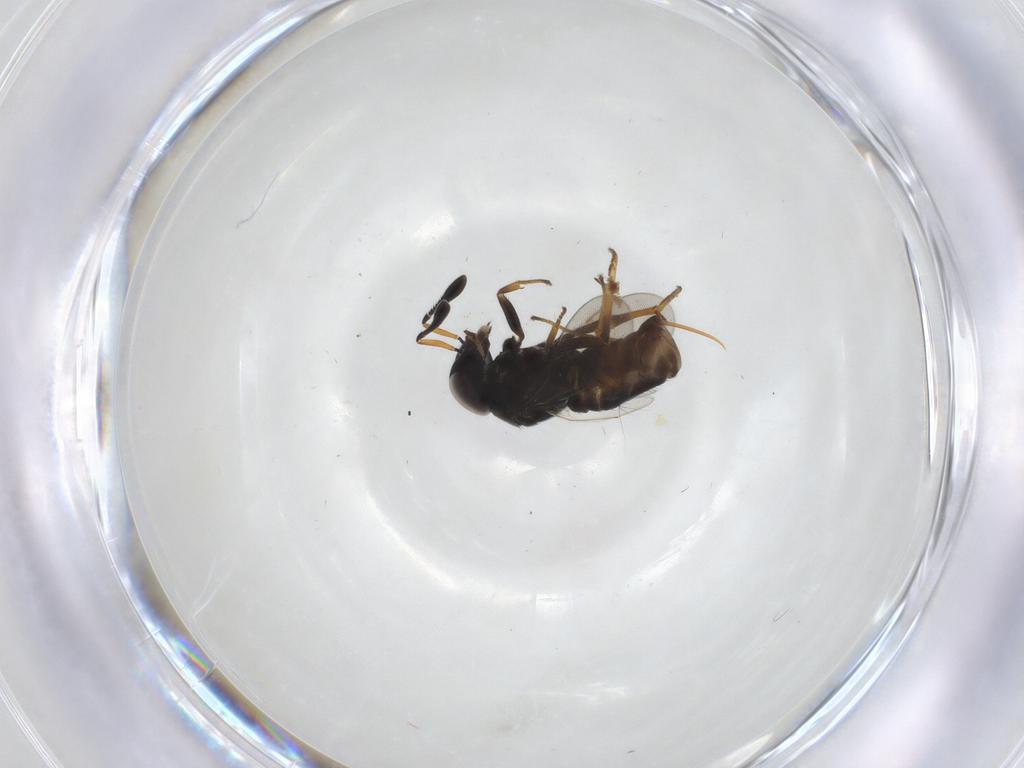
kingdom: Animalia
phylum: Arthropoda
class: Insecta
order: Hymenoptera
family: Encyrtidae
